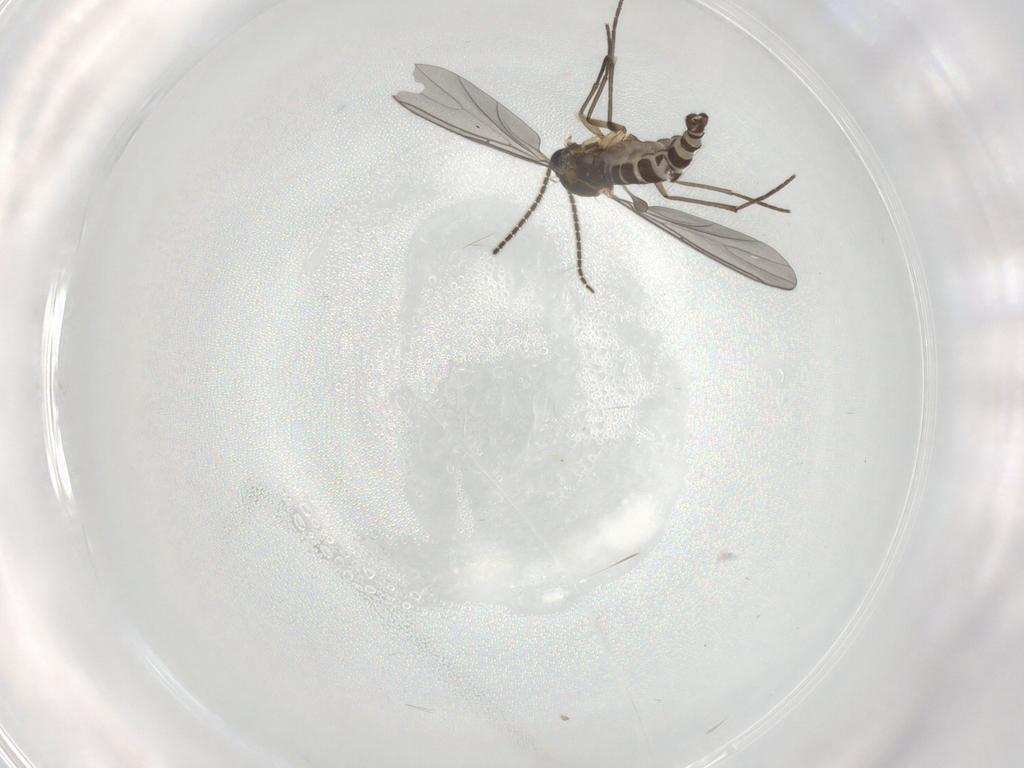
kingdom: Animalia
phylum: Arthropoda
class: Insecta
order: Diptera
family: Sciaridae
